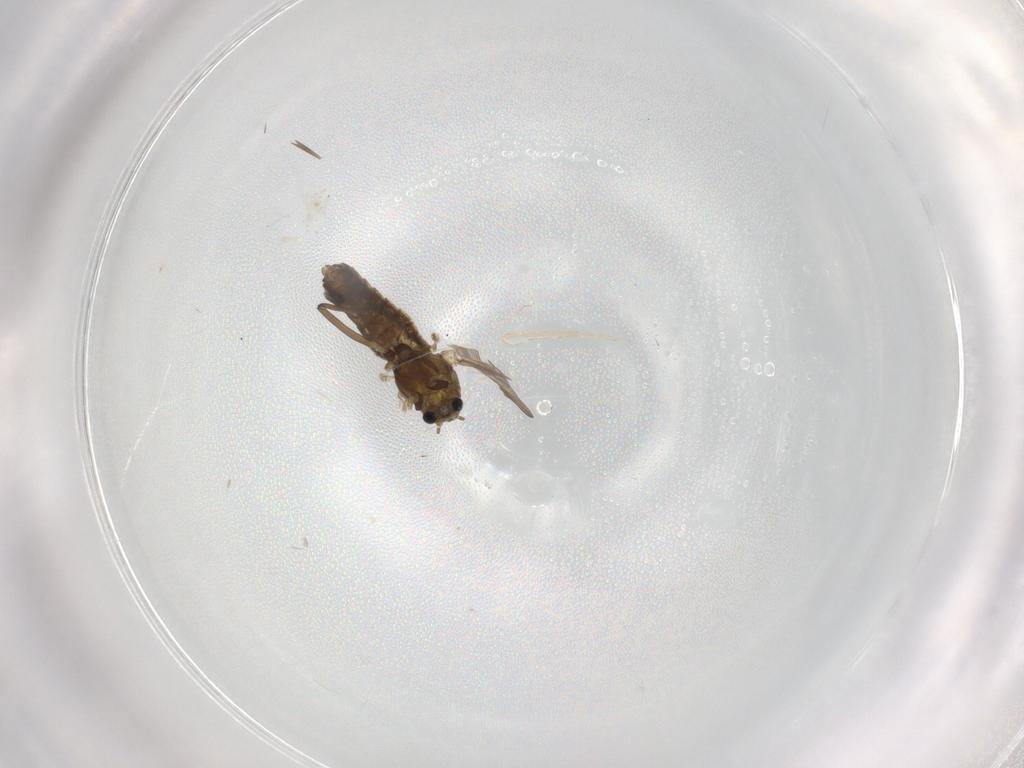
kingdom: Animalia
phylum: Arthropoda
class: Insecta
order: Diptera
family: Chironomidae
